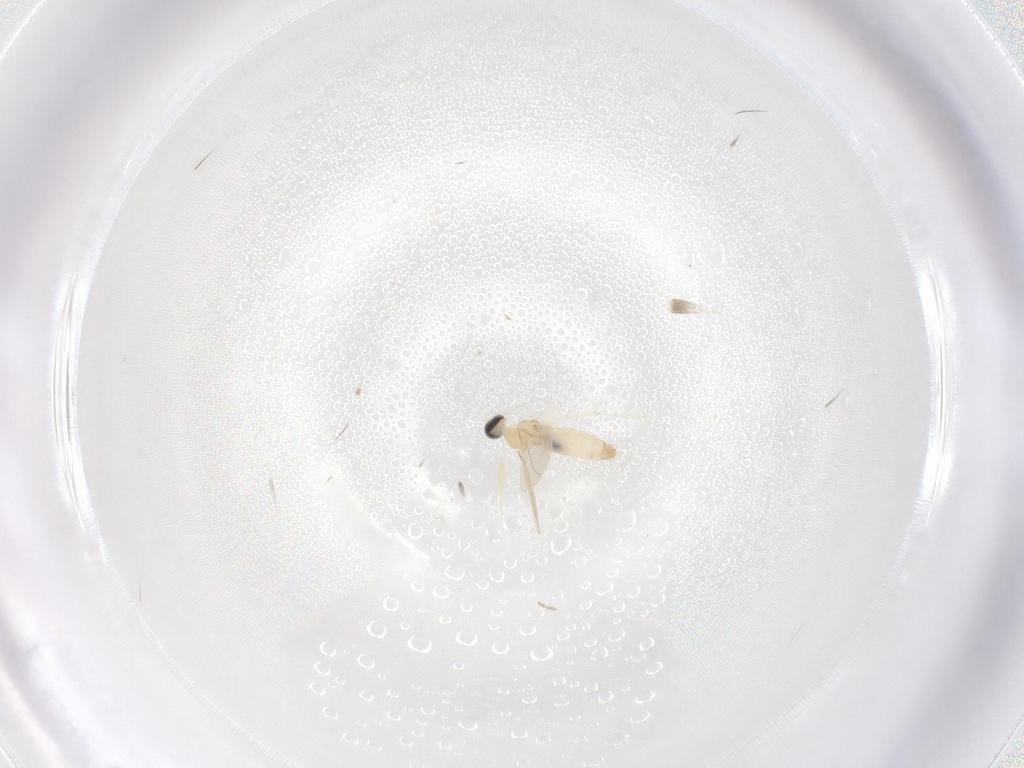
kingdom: Animalia
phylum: Arthropoda
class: Insecta
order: Diptera
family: Cecidomyiidae
